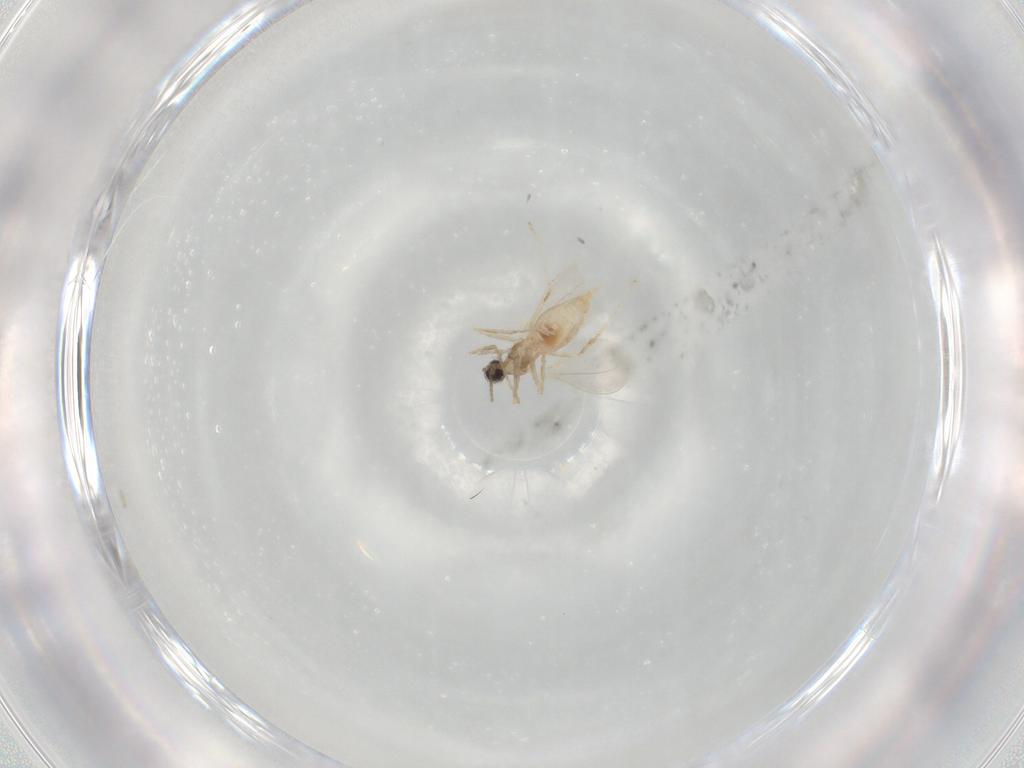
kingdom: Animalia
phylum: Arthropoda
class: Insecta
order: Diptera
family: Cecidomyiidae
